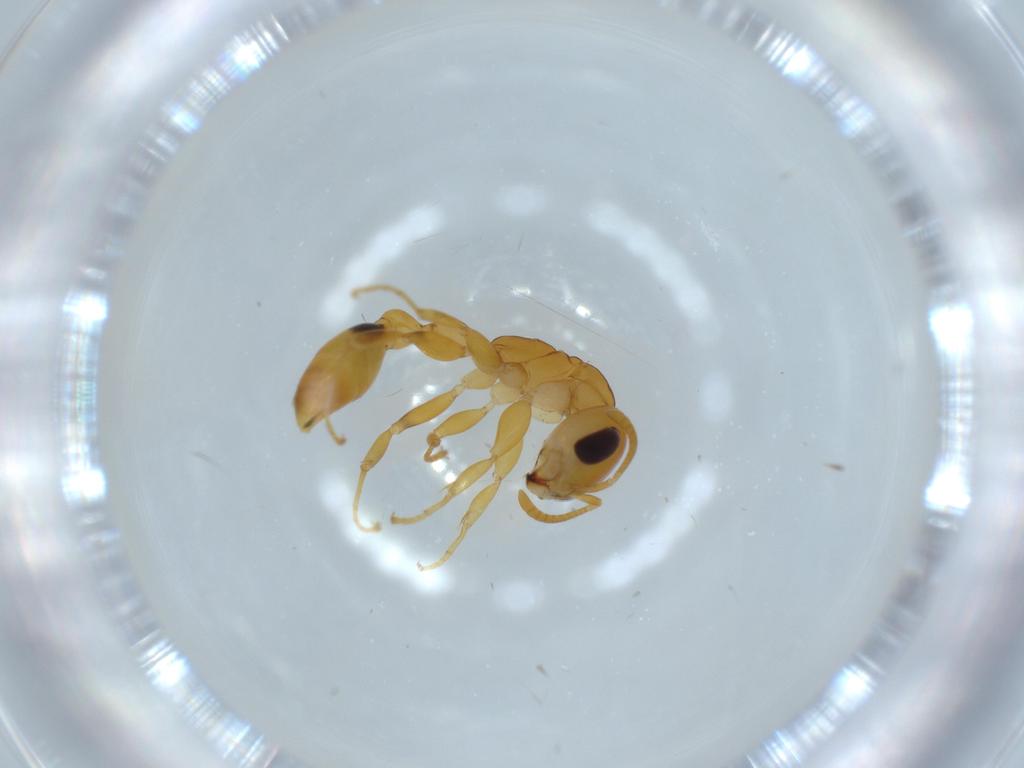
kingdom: Animalia
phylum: Arthropoda
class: Insecta
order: Hymenoptera
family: Formicidae
